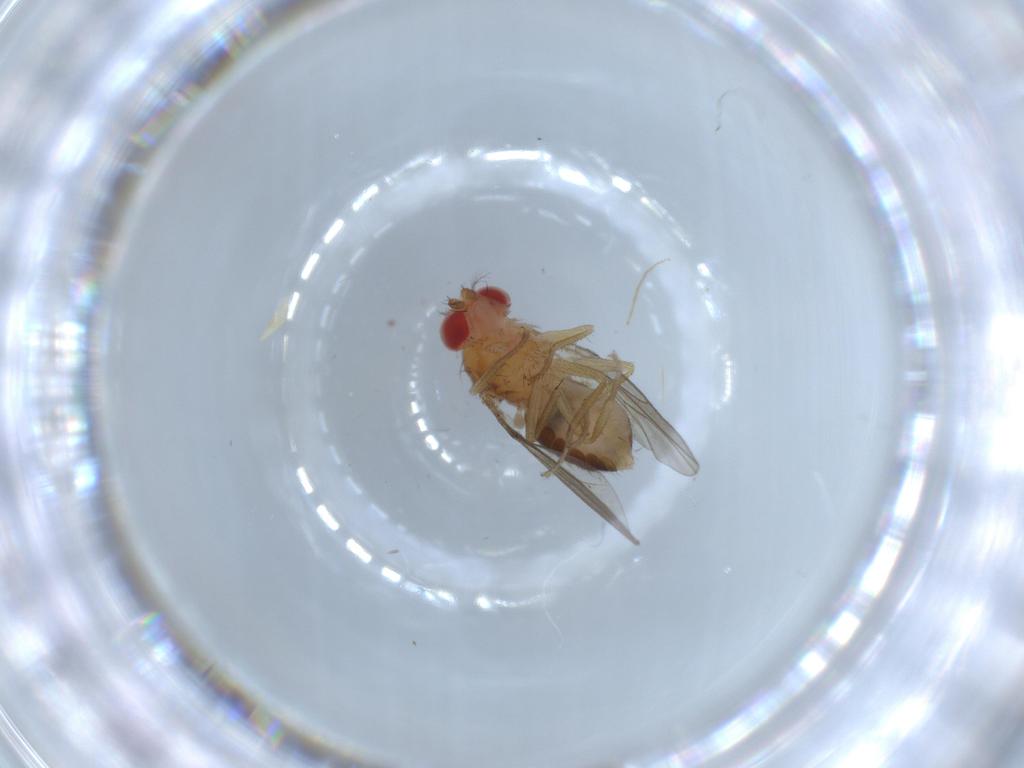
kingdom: Animalia
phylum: Arthropoda
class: Insecta
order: Diptera
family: Drosophilidae
